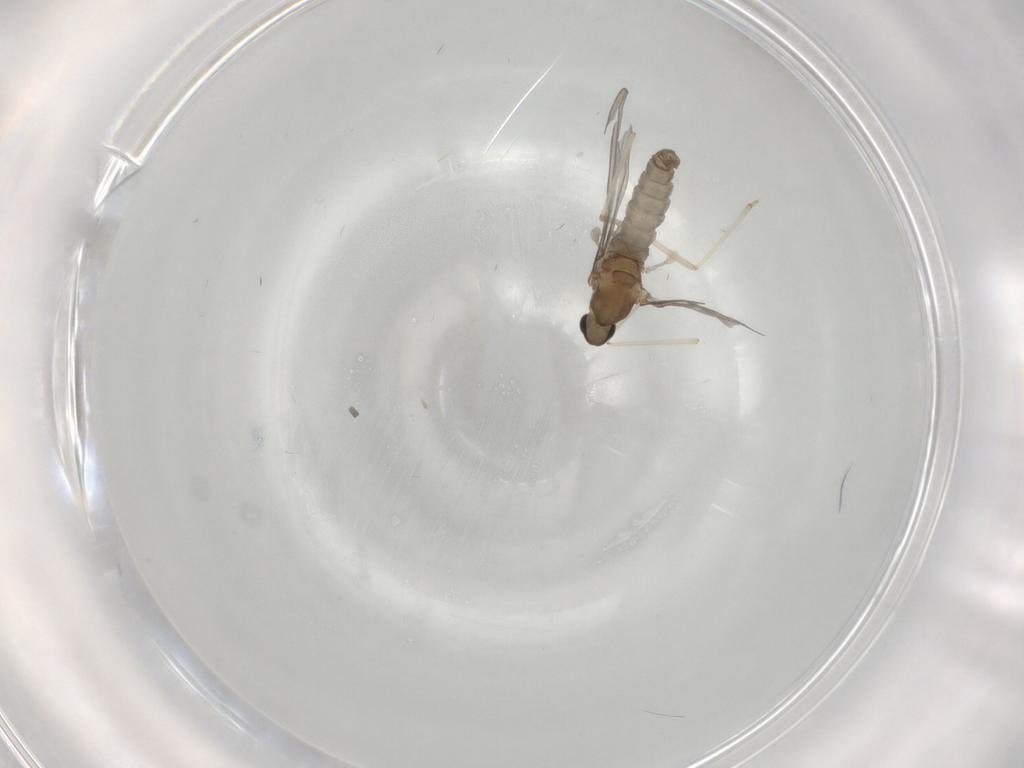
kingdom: Animalia
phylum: Arthropoda
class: Insecta
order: Diptera
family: Cecidomyiidae
